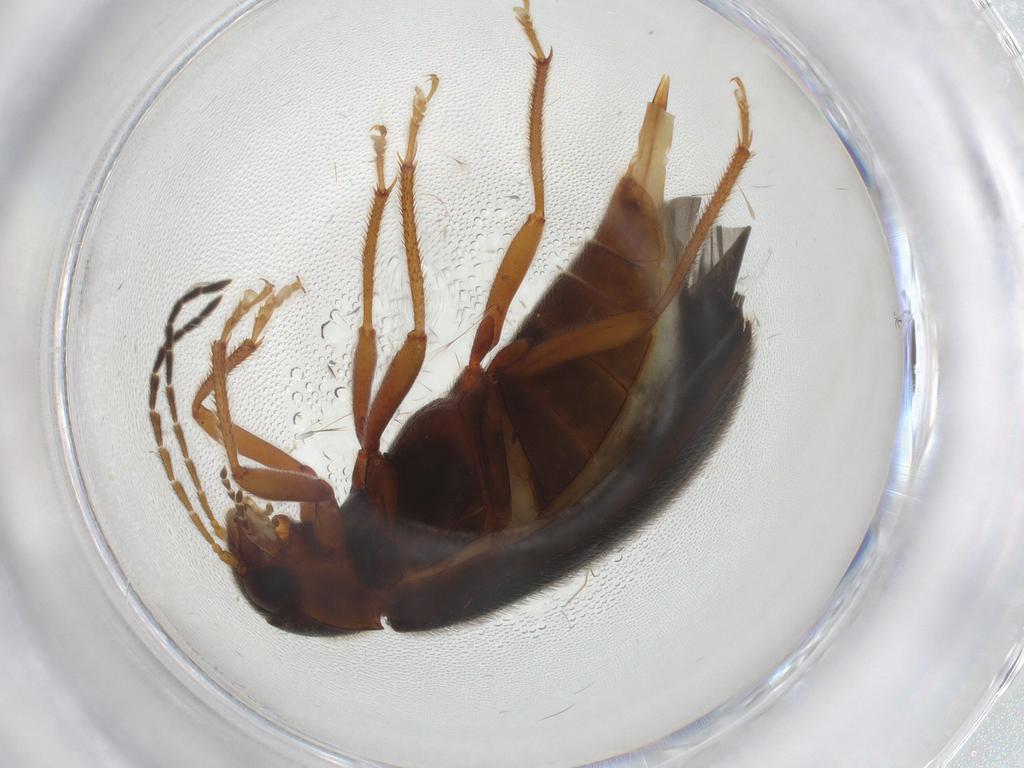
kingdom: Animalia
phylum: Arthropoda
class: Insecta
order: Coleoptera
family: Ptilodactylidae
